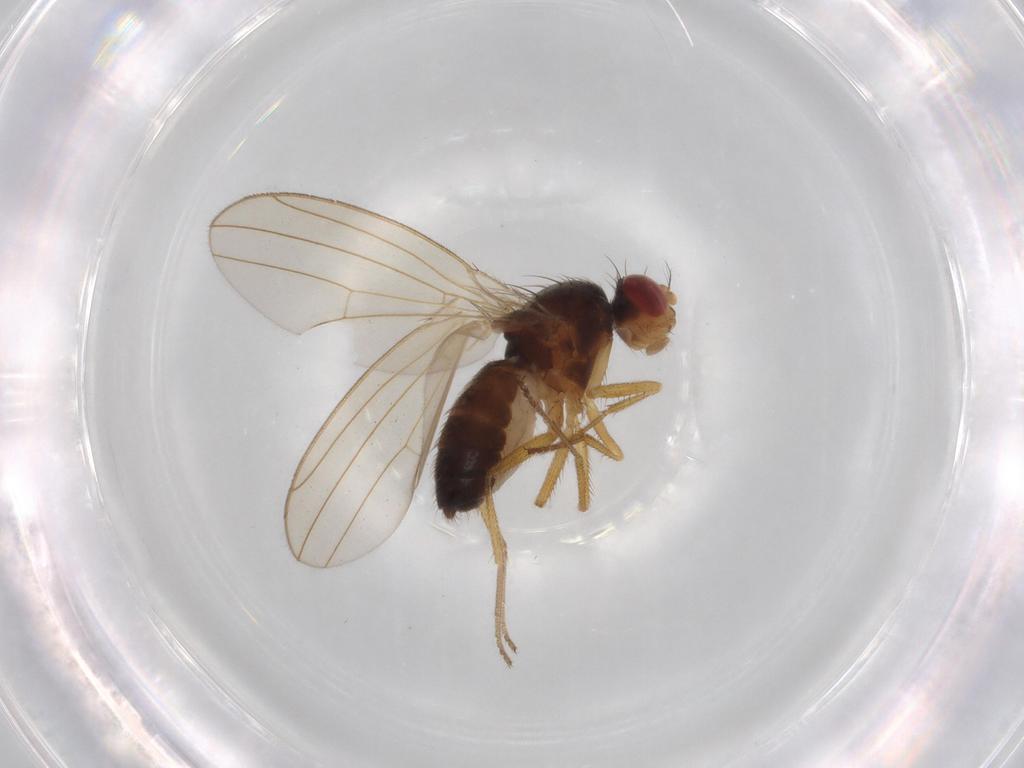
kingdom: Animalia
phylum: Arthropoda
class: Insecta
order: Diptera
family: Drosophilidae
